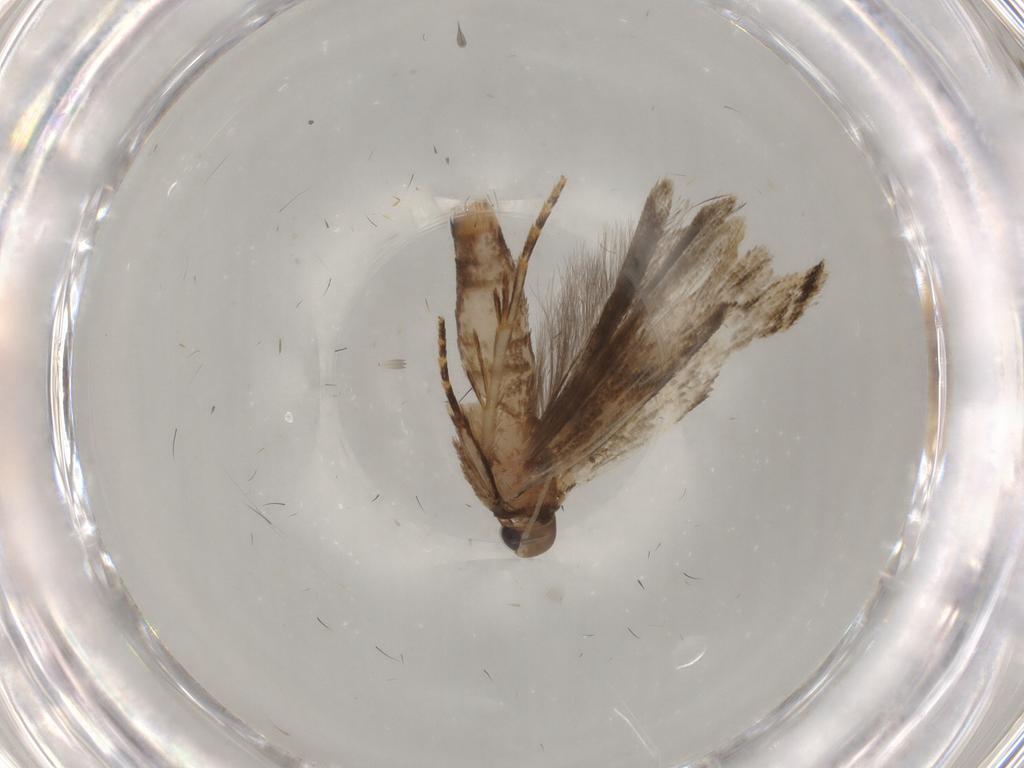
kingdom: Animalia
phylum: Arthropoda
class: Insecta
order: Lepidoptera
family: Gelechiidae
